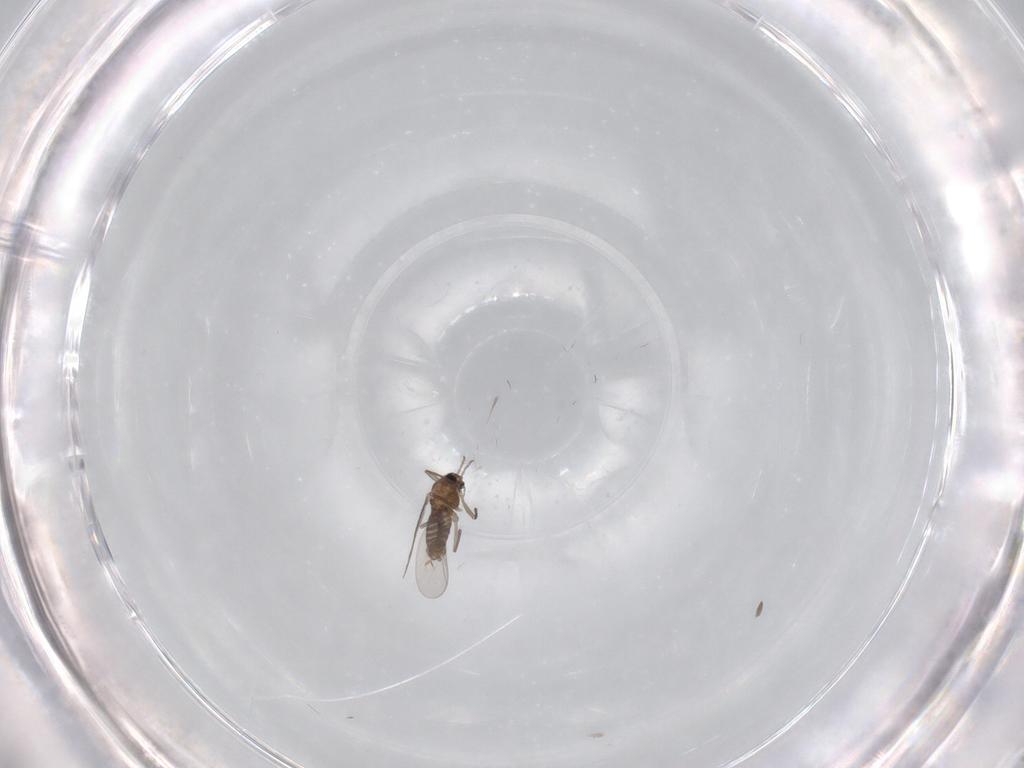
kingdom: Animalia
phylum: Arthropoda
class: Insecta
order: Diptera
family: Chironomidae
